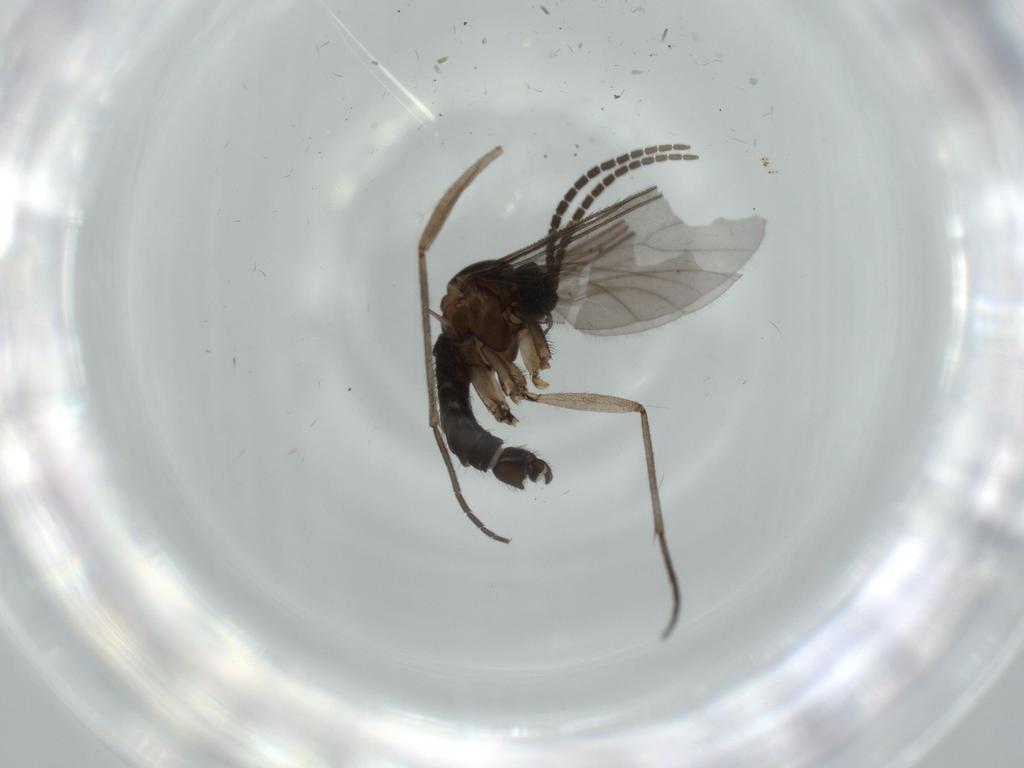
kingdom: Animalia
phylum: Arthropoda
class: Insecta
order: Diptera
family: Sciaridae
